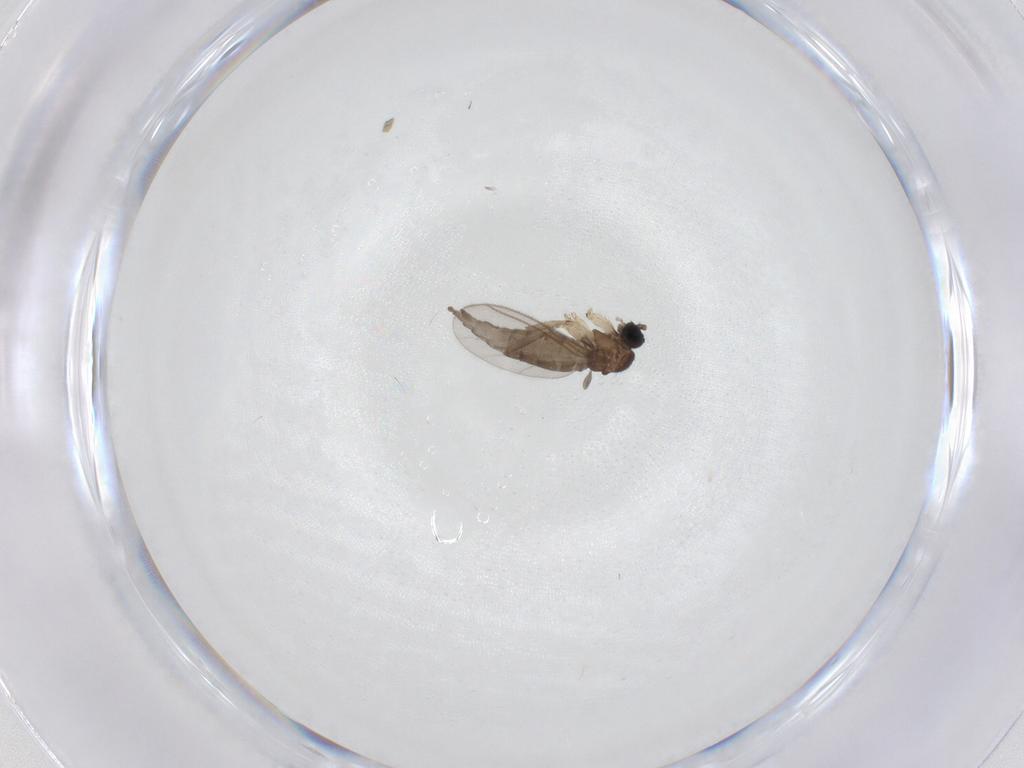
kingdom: Animalia
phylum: Arthropoda
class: Insecta
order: Diptera
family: Sciaridae
